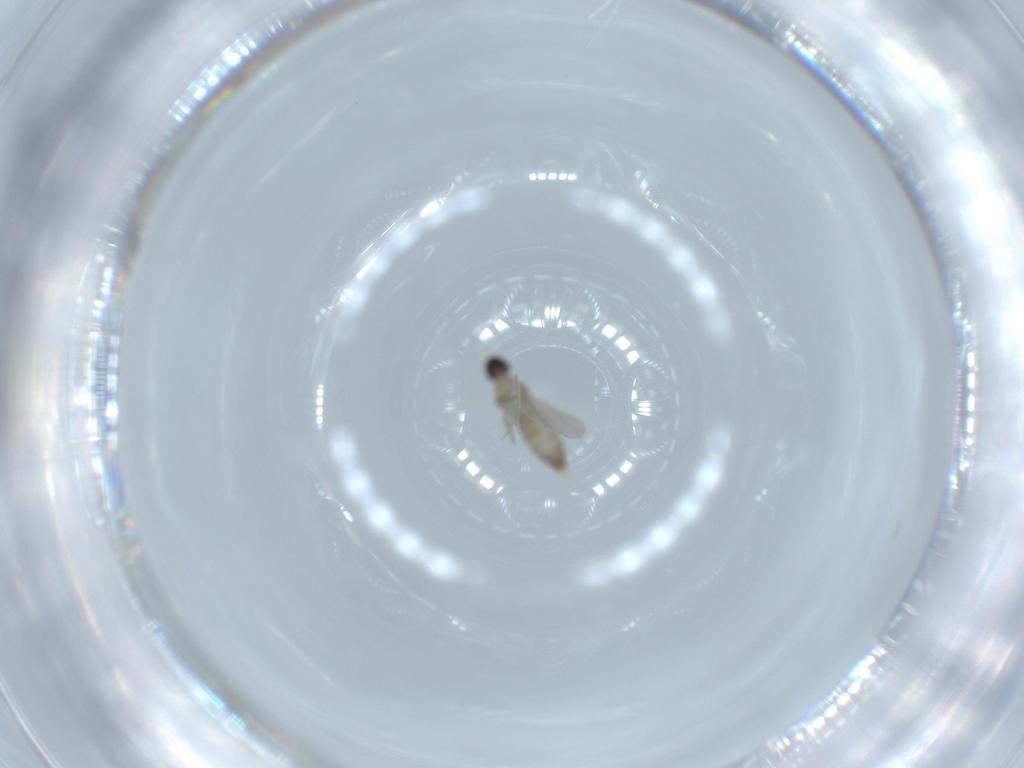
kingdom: Animalia
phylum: Arthropoda
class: Insecta
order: Diptera
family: Cecidomyiidae
